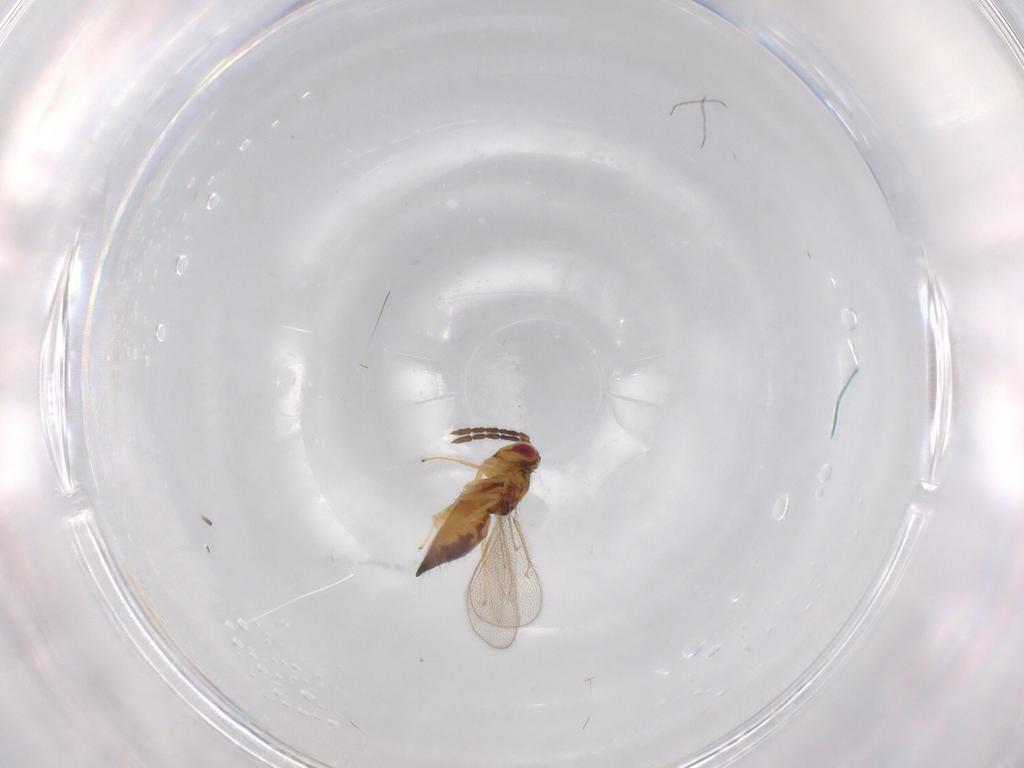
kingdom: Animalia
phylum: Arthropoda
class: Insecta
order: Hymenoptera
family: Eulophidae
